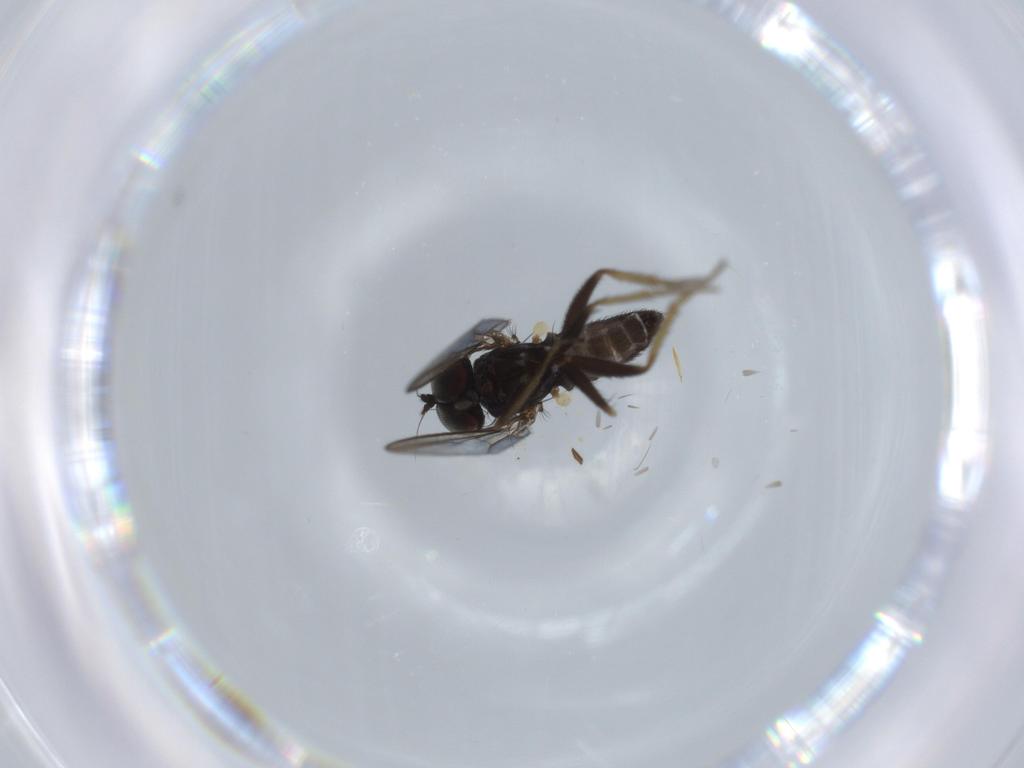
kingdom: Animalia
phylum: Arthropoda
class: Insecta
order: Diptera
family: Dolichopodidae
